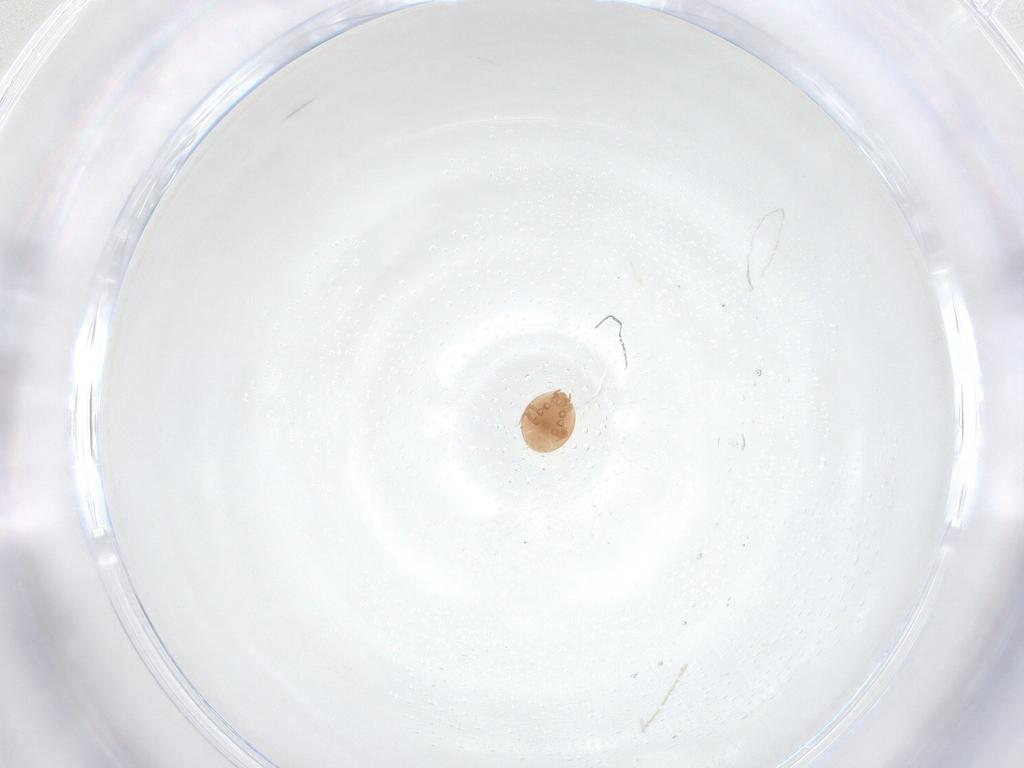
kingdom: Animalia
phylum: Arthropoda
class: Arachnida
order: Mesostigmata
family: Trematuridae
